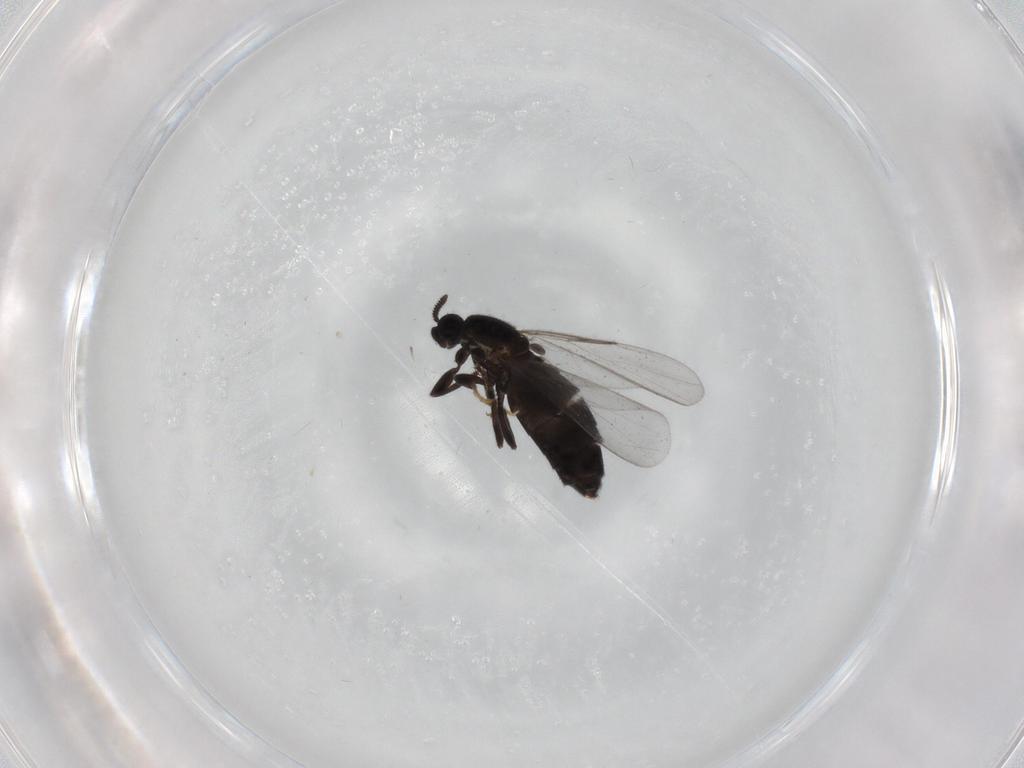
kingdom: Animalia
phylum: Arthropoda
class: Insecta
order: Diptera
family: Scatopsidae
